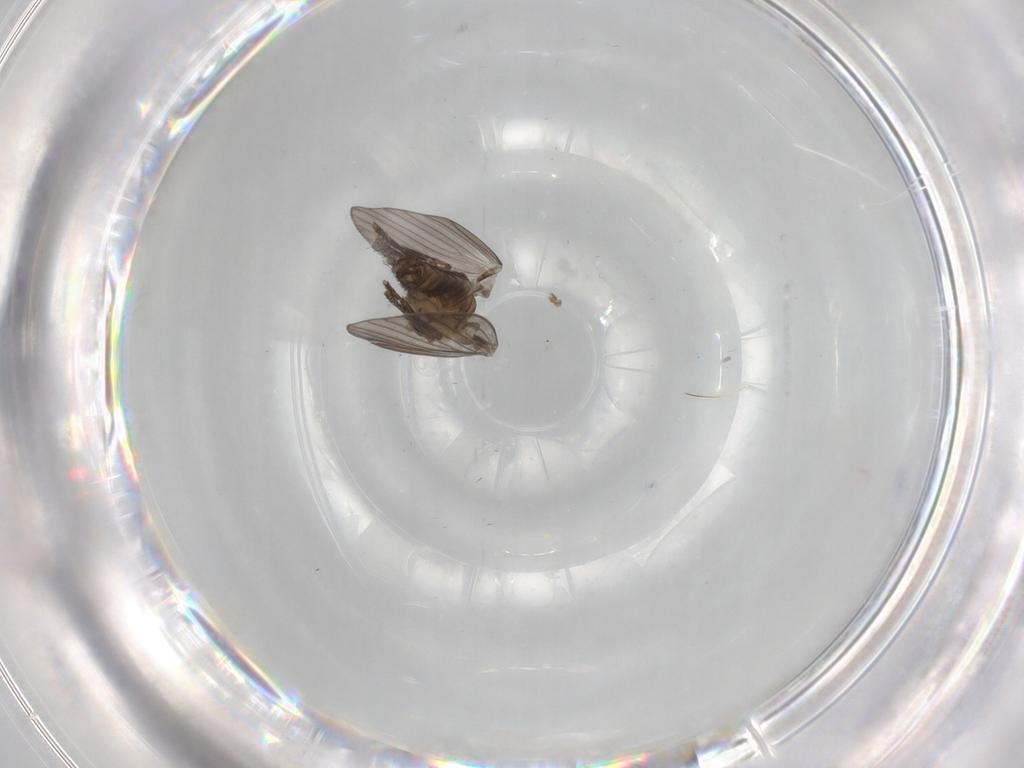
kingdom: Animalia
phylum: Arthropoda
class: Insecta
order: Diptera
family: Psychodidae
